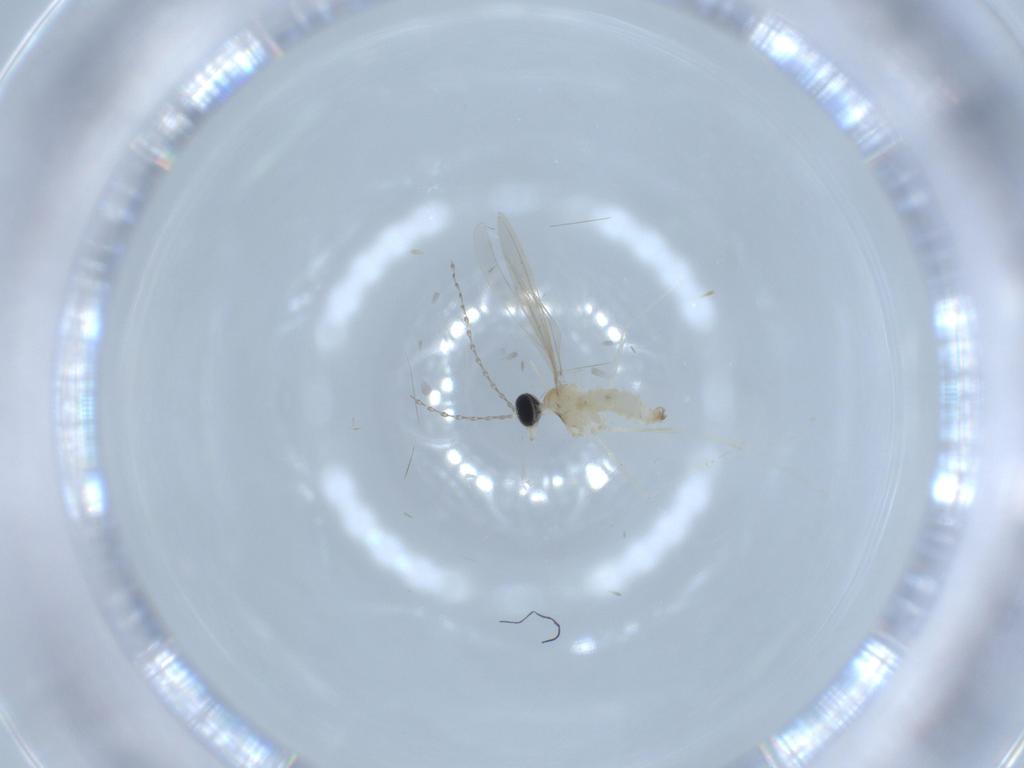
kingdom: Animalia
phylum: Arthropoda
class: Insecta
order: Diptera
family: Cecidomyiidae
